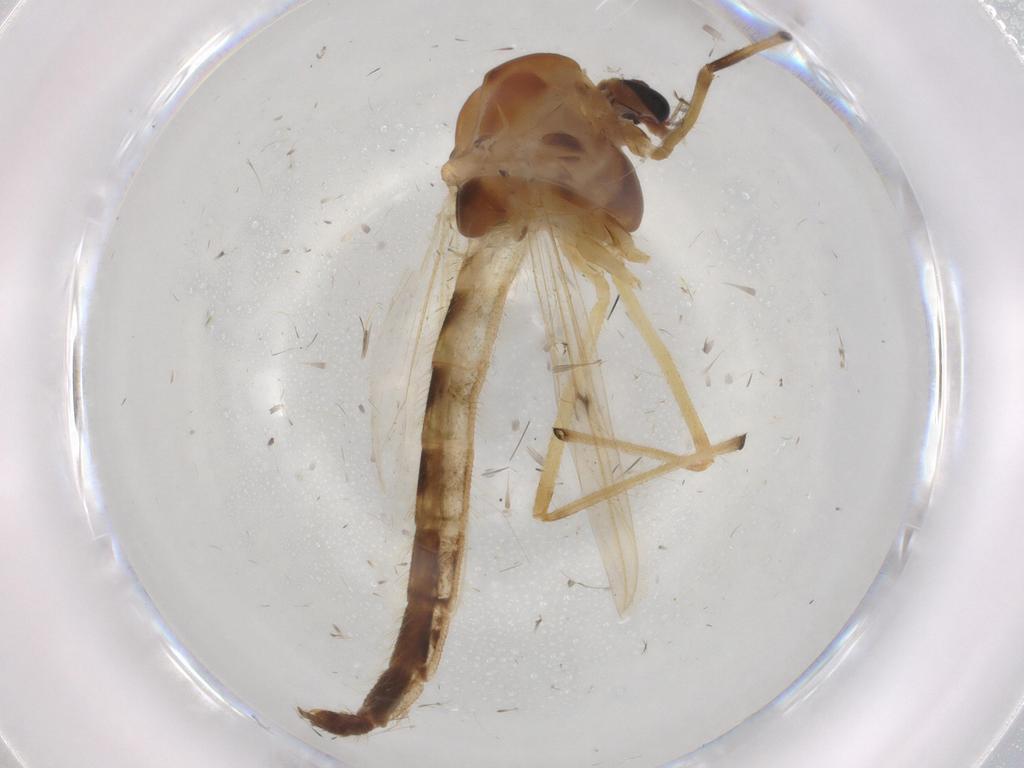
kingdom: Animalia
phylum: Arthropoda
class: Insecta
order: Diptera
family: Chironomidae
